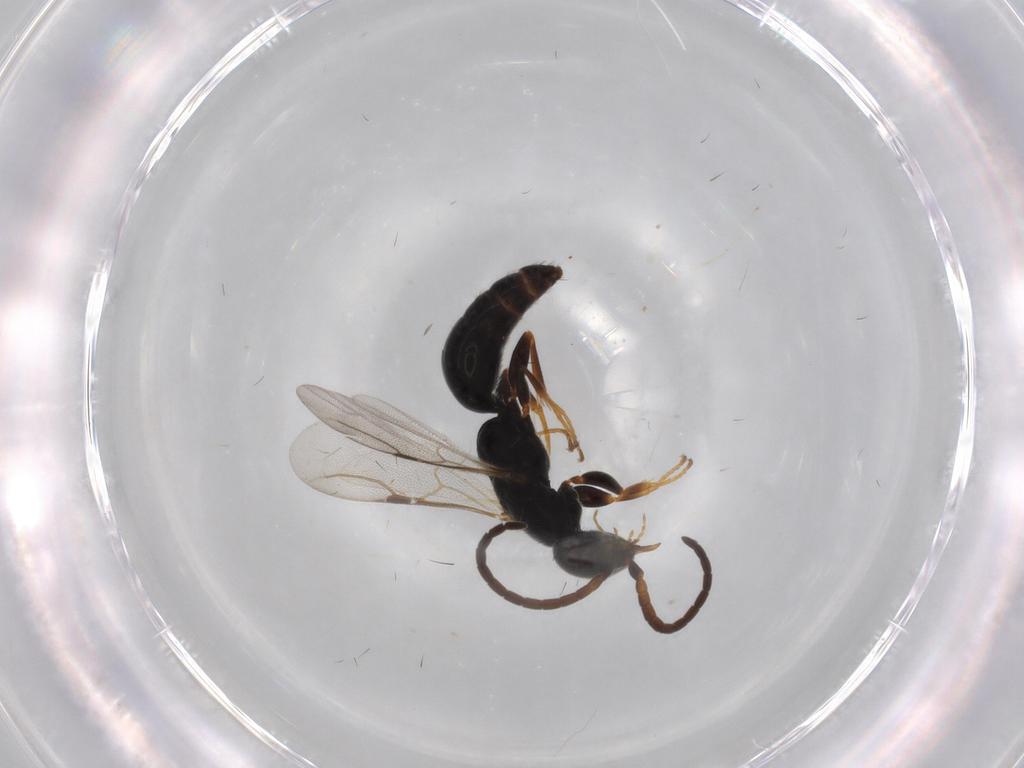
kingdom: Animalia
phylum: Arthropoda
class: Insecta
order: Hymenoptera
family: Bethylidae
